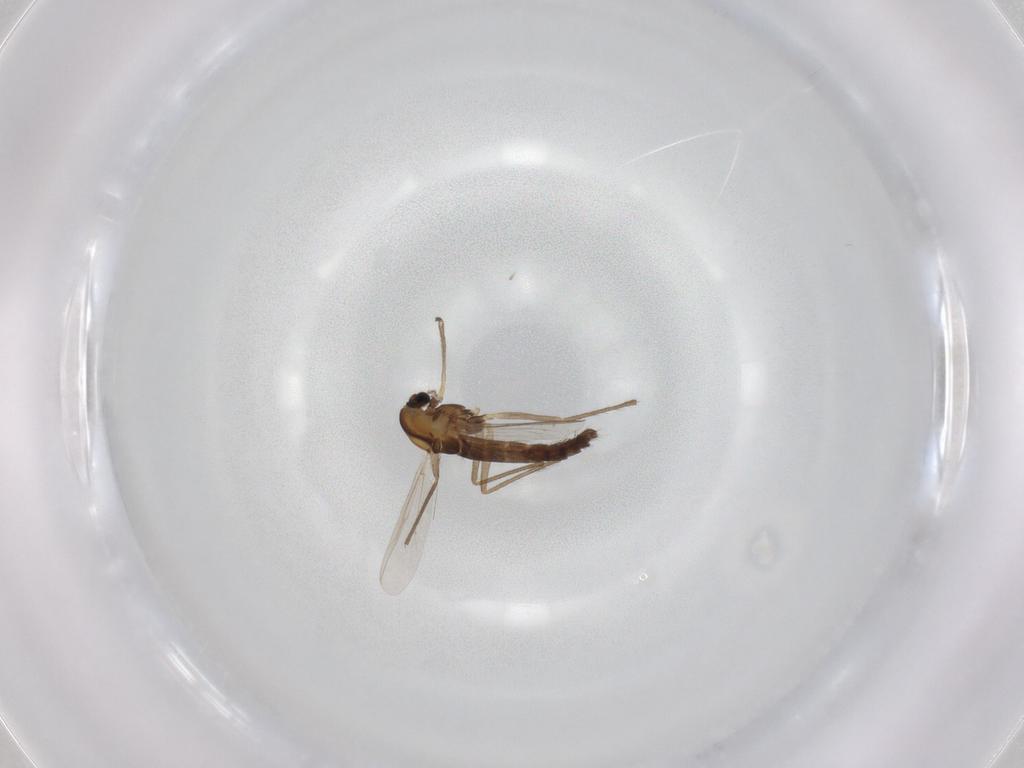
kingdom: Animalia
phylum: Arthropoda
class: Insecta
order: Diptera
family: Chironomidae
